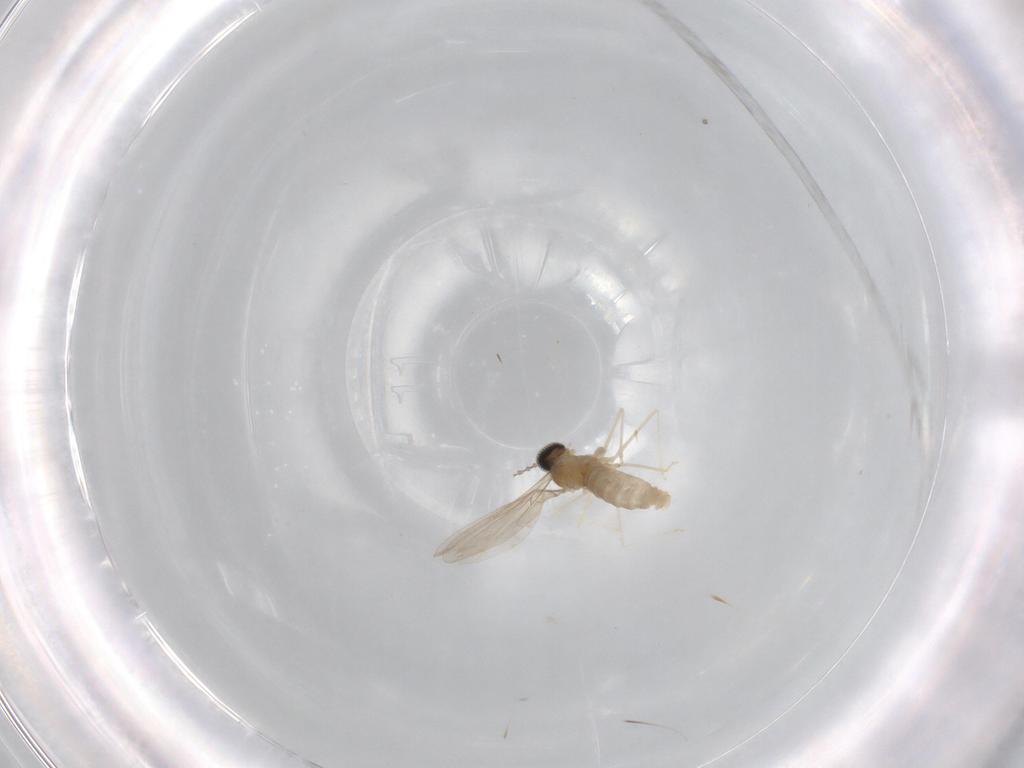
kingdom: Animalia
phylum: Arthropoda
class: Insecta
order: Diptera
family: Cecidomyiidae
